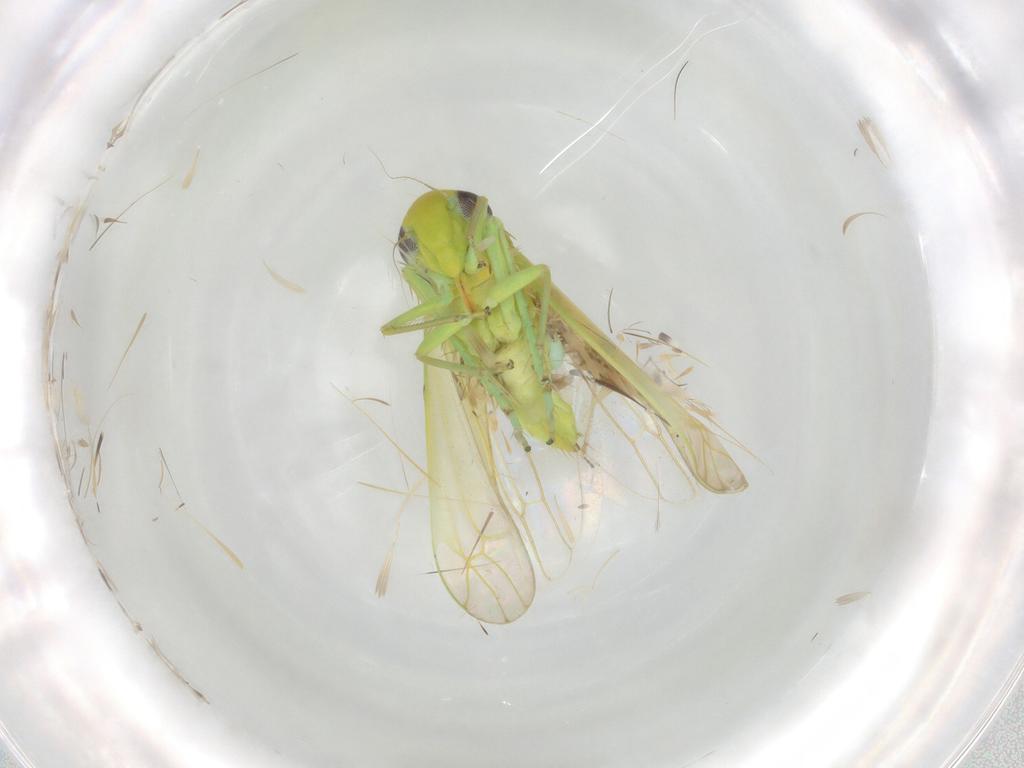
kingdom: Animalia
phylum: Arthropoda
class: Insecta
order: Hemiptera
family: Cicadellidae
